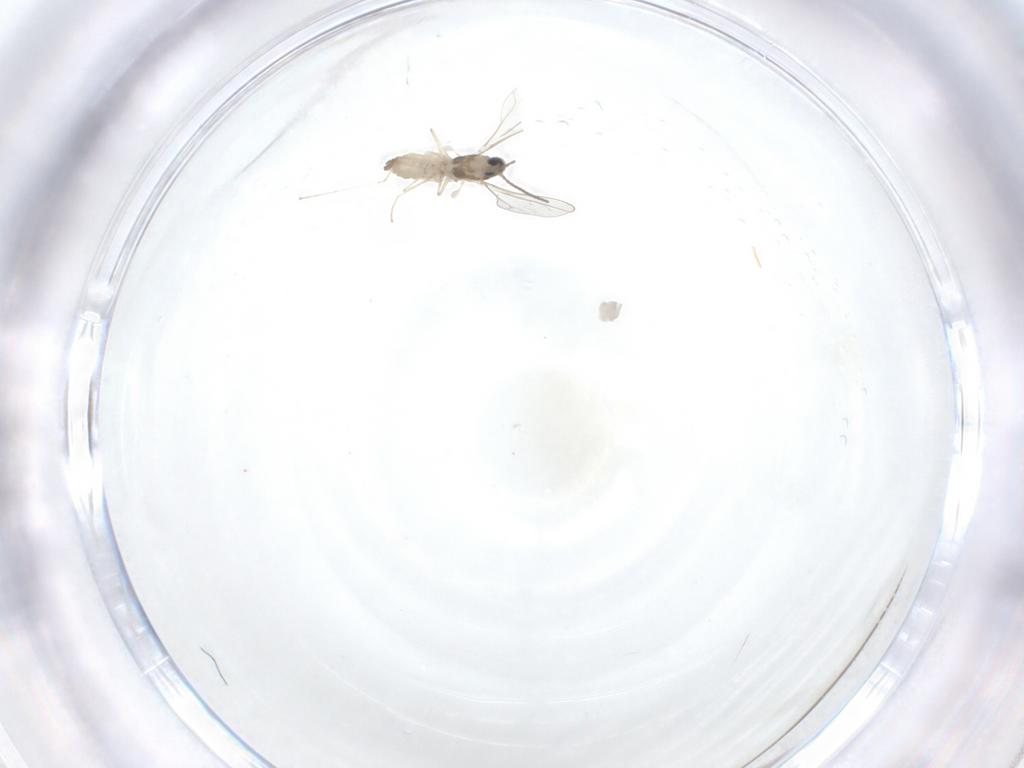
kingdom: Animalia
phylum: Arthropoda
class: Insecta
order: Diptera
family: Cecidomyiidae
